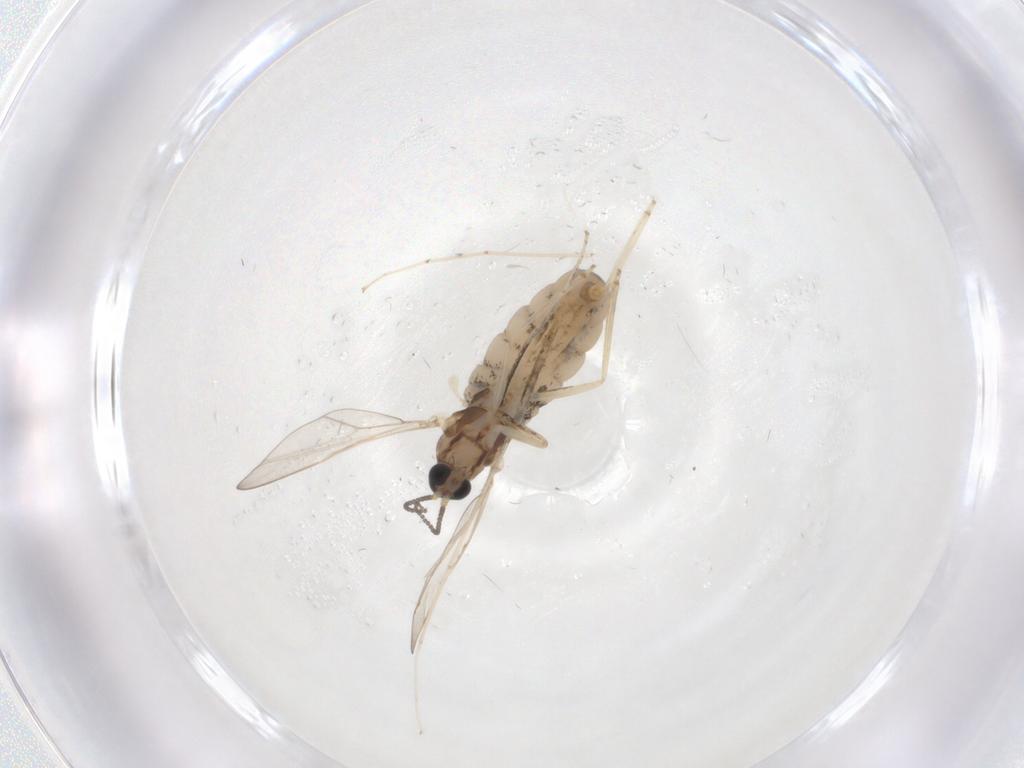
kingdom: Animalia
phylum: Arthropoda
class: Insecta
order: Diptera
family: Cecidomyiidae
